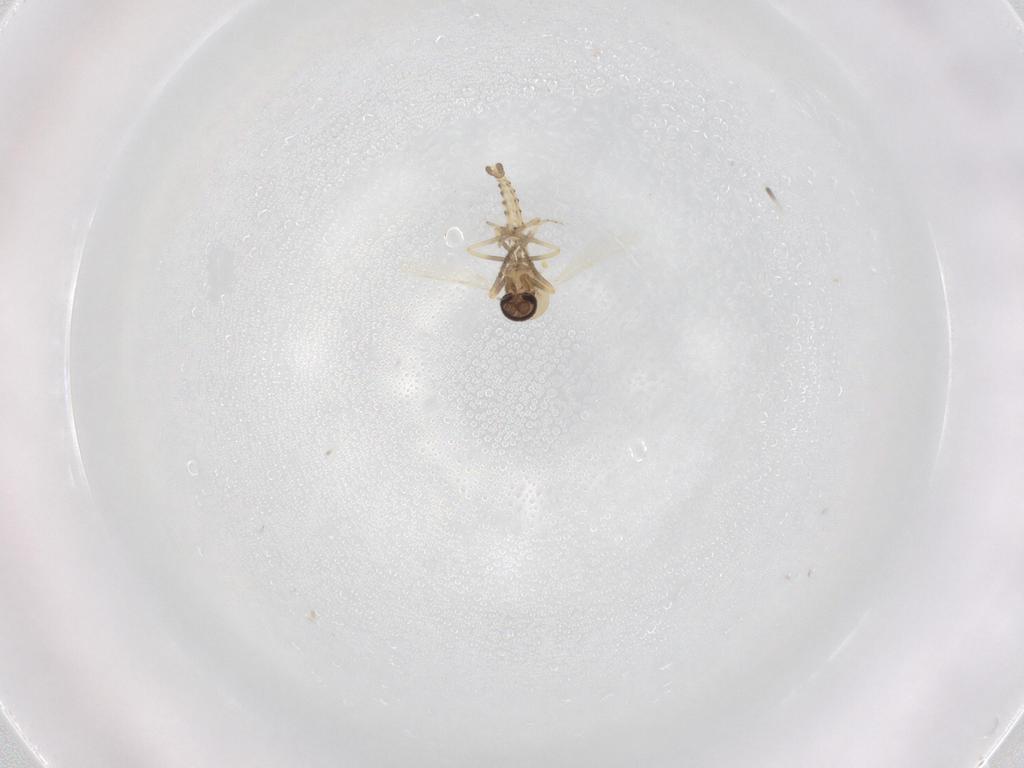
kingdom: Animalia
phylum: Arthropoda
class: Insecta
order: Diptera
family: Ceratopogonidae
